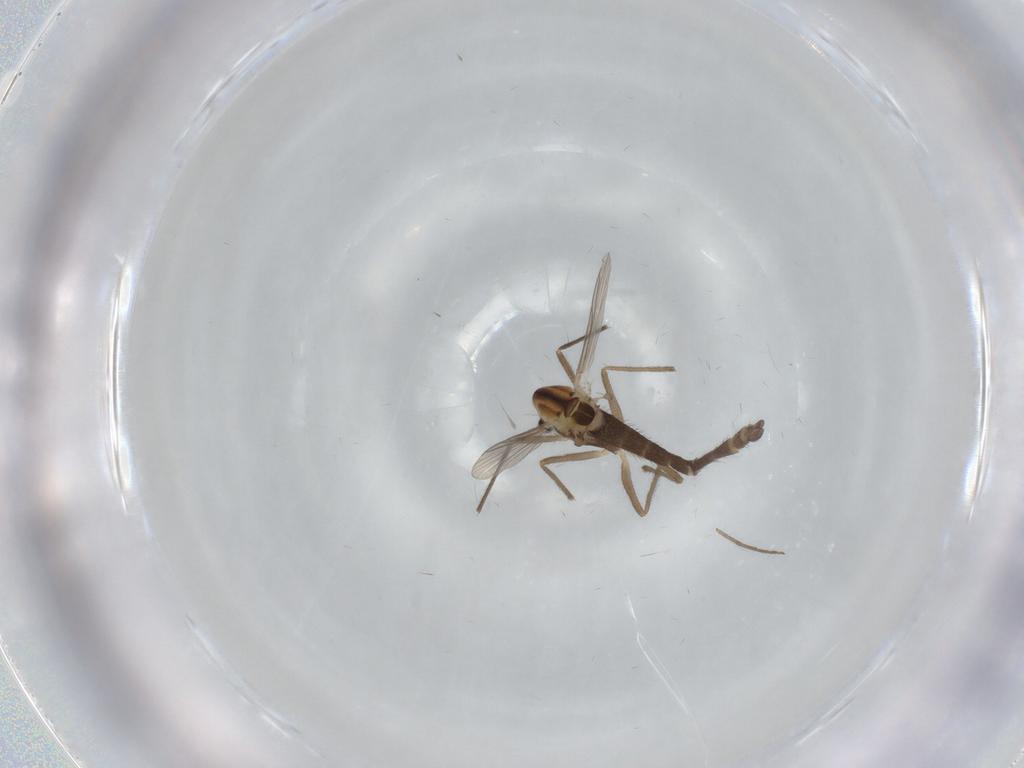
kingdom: Animalia
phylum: Arthropoda
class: Insecta
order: Diptera
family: Chironomidae
